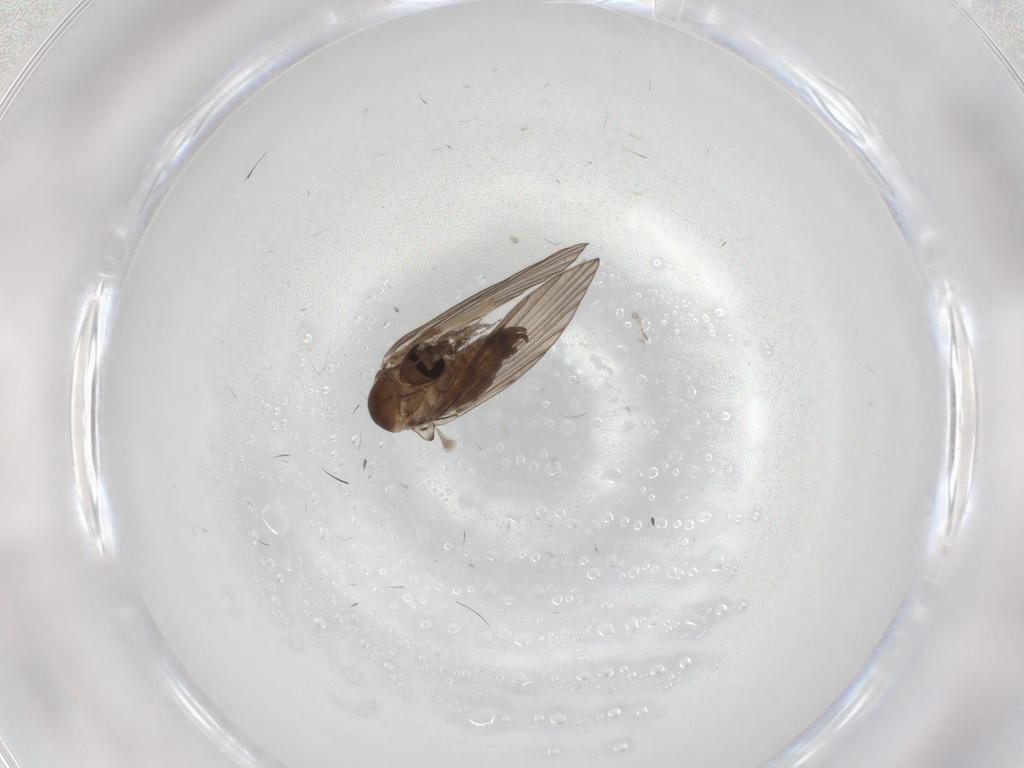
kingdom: Animalia
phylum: Arthropoda
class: Insecta
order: Diptera
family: Psychodidae
